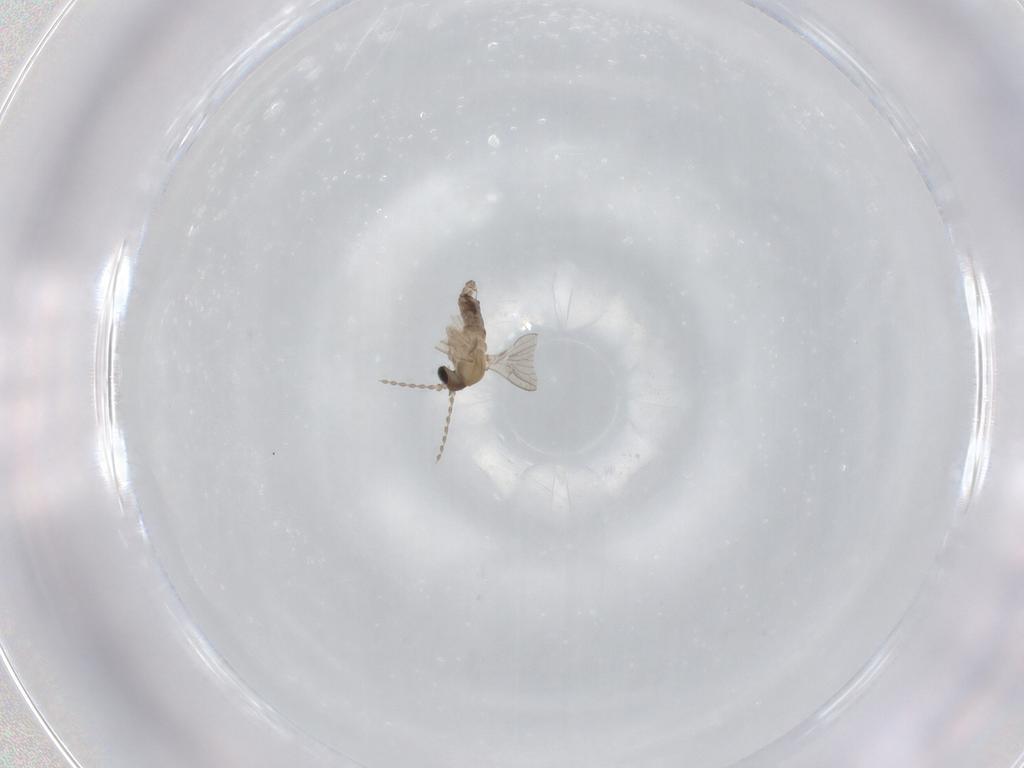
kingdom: Animalia
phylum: Arthropoda
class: Insecta
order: Diptera
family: Psychodidae
